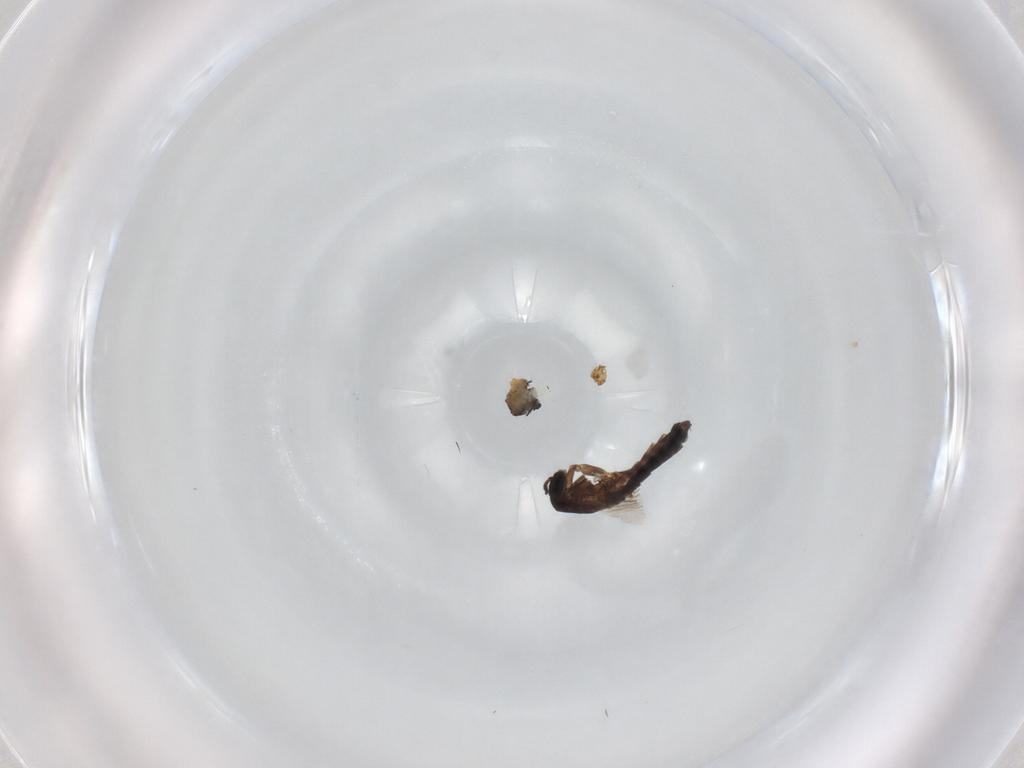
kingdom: Animalia
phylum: Arthropoda
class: Insecta
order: Diptera
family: Scatopsidae
